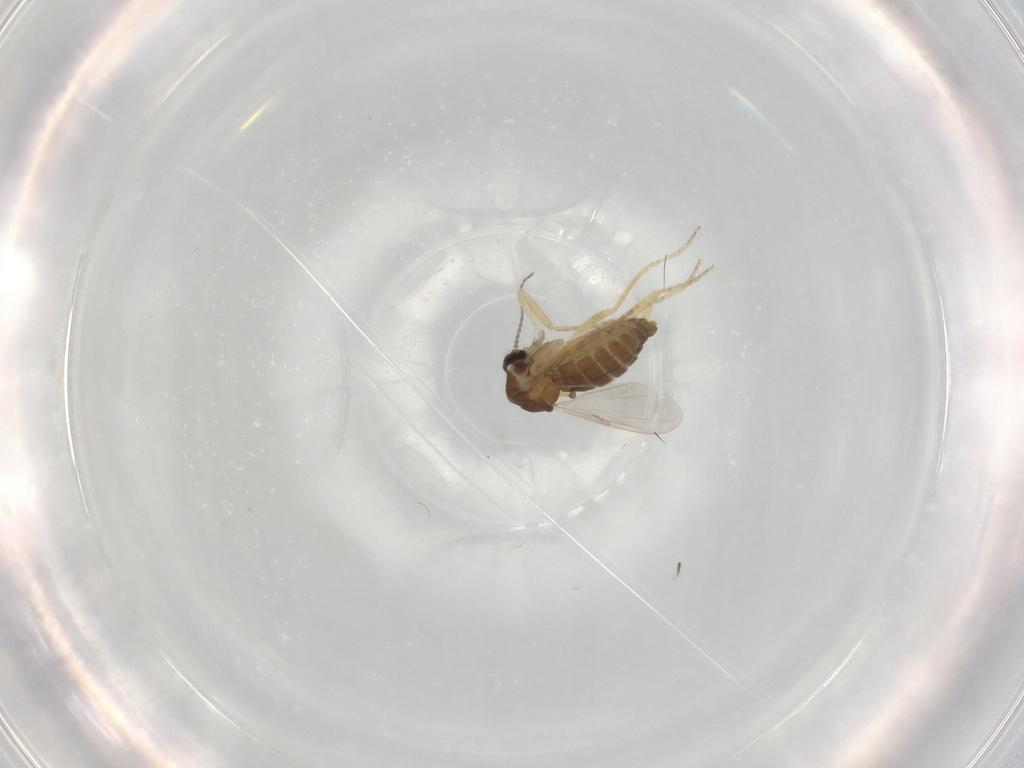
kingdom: Animalia
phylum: Arthropoda
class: Insecta
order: Diptera
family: Ceratopogonidae
